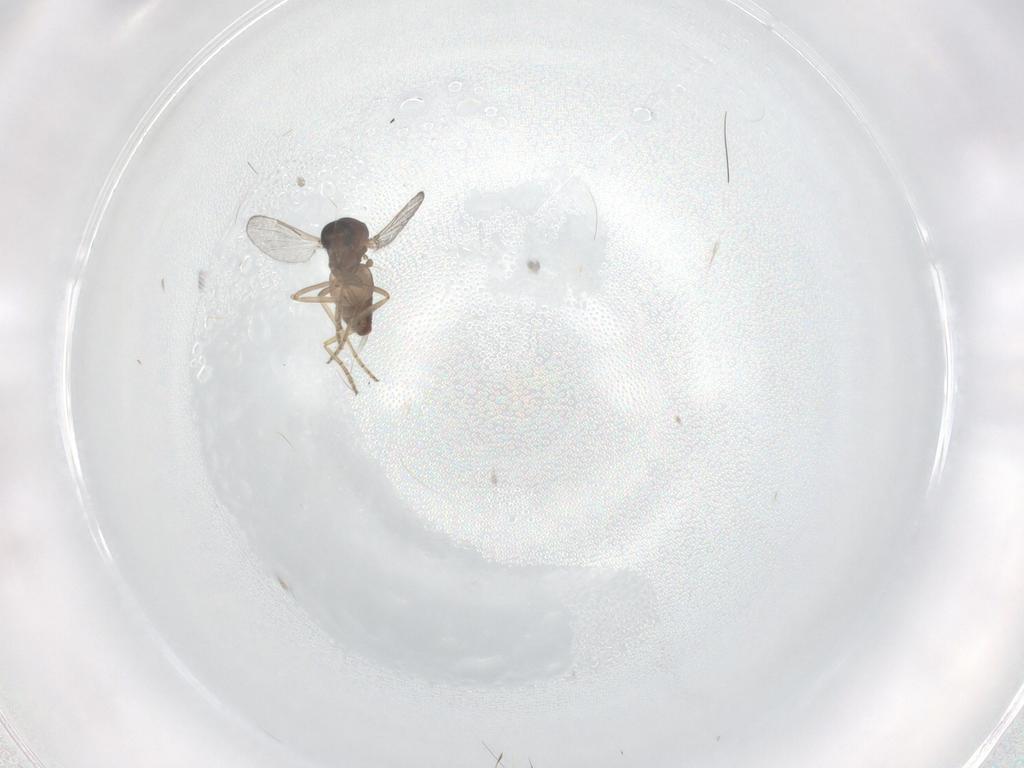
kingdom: Animalia
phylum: Arthropoda
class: Insecta
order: Diptera
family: Ceratopogonidae
